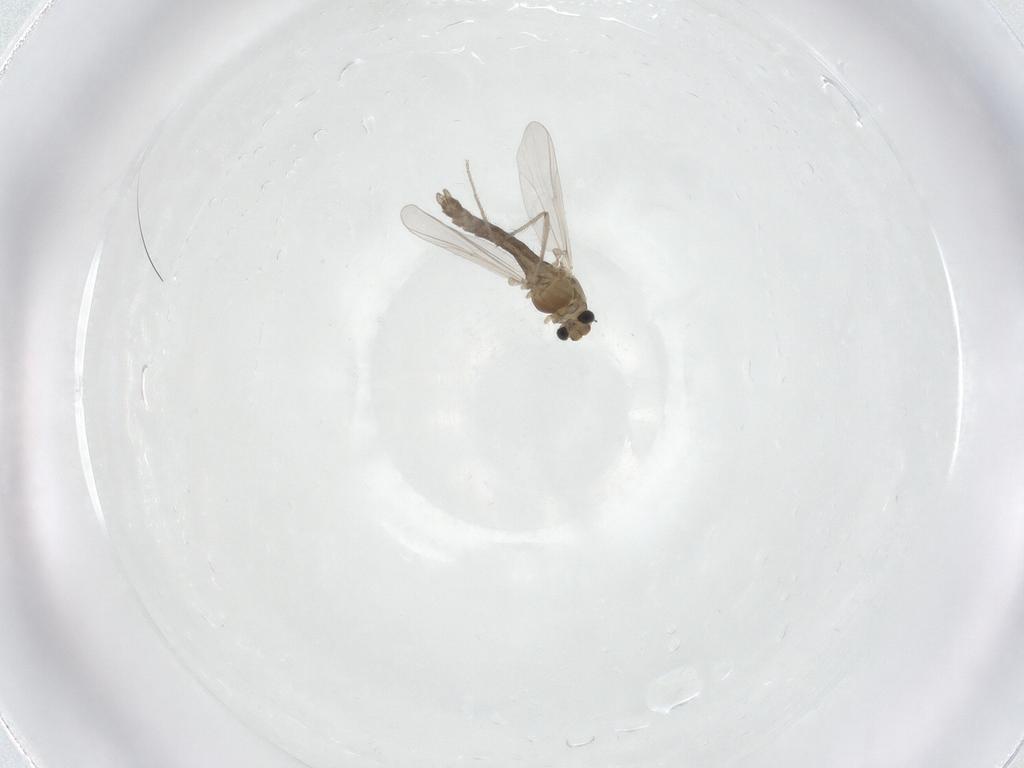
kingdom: Animalia
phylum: Arthropoda
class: Insecta
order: Diptera
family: Chironomidae
